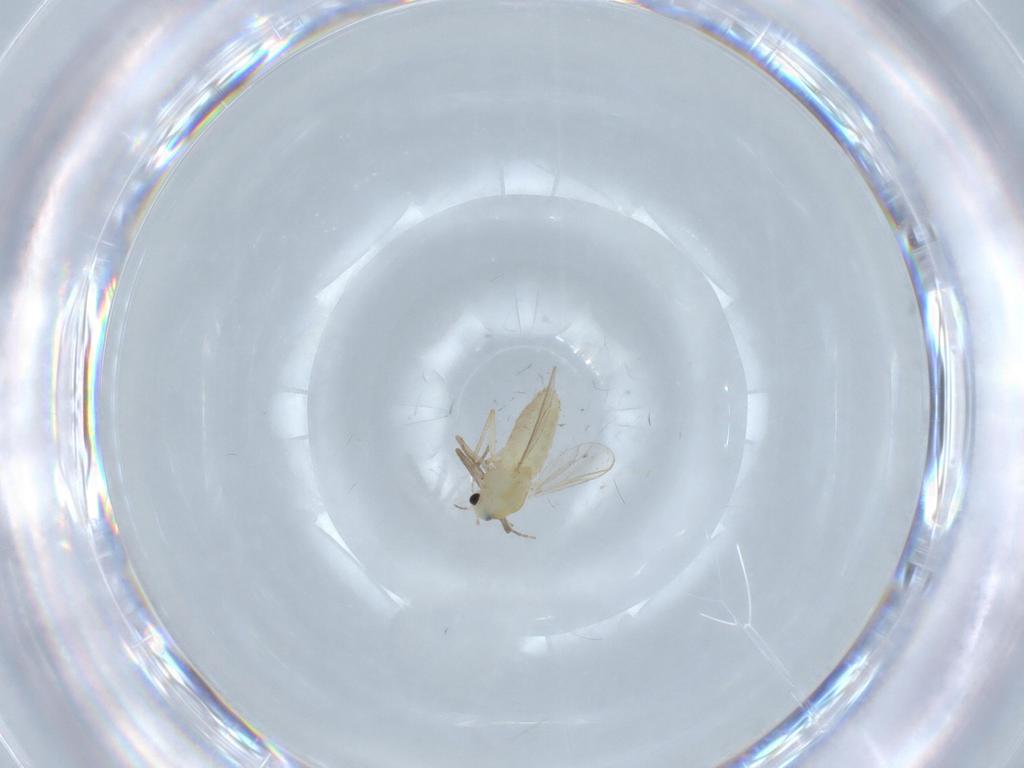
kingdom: Animalia
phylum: Arthropoda
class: Insecta
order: Diptera
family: Chironomidae
